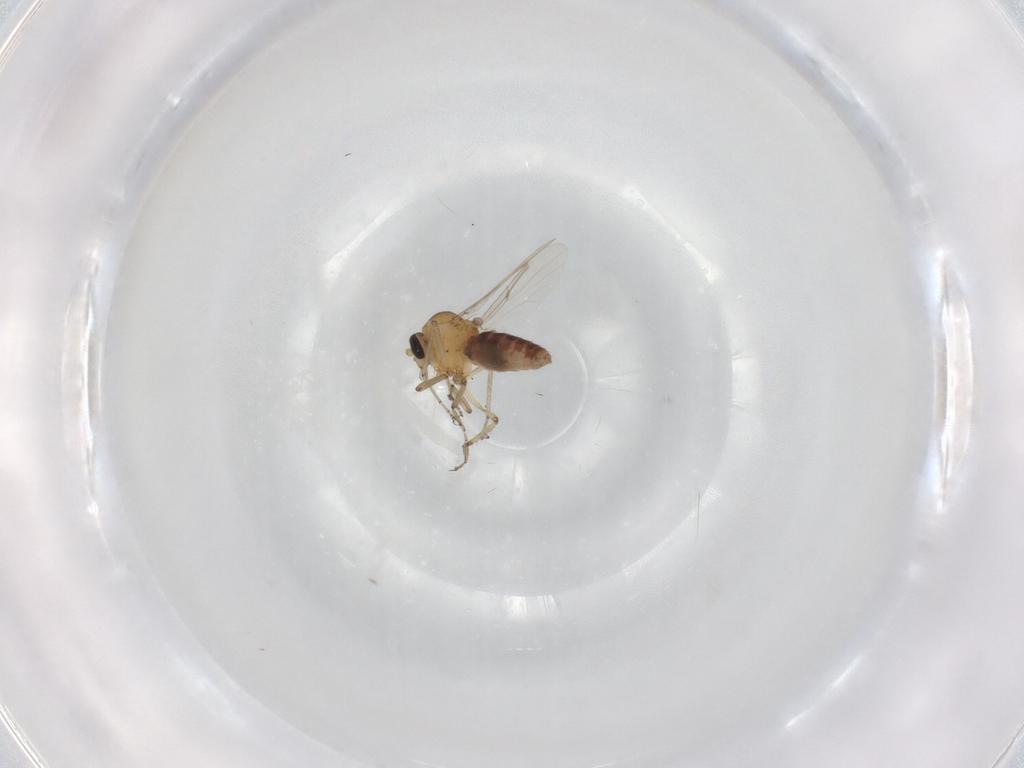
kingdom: Animalia
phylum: Arthropoda
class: Insecta
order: Diptera
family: Ceratopogonidae
